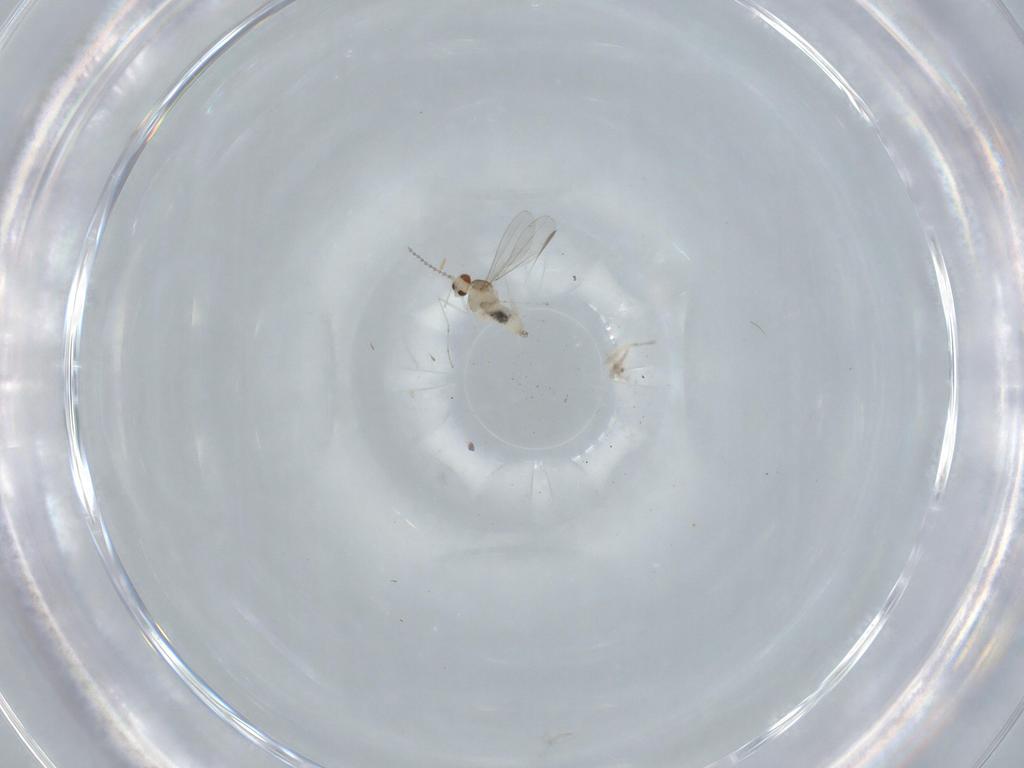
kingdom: Animalia
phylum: Arthropoda
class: Insecta
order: Diptera
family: Cecidomyiidae
